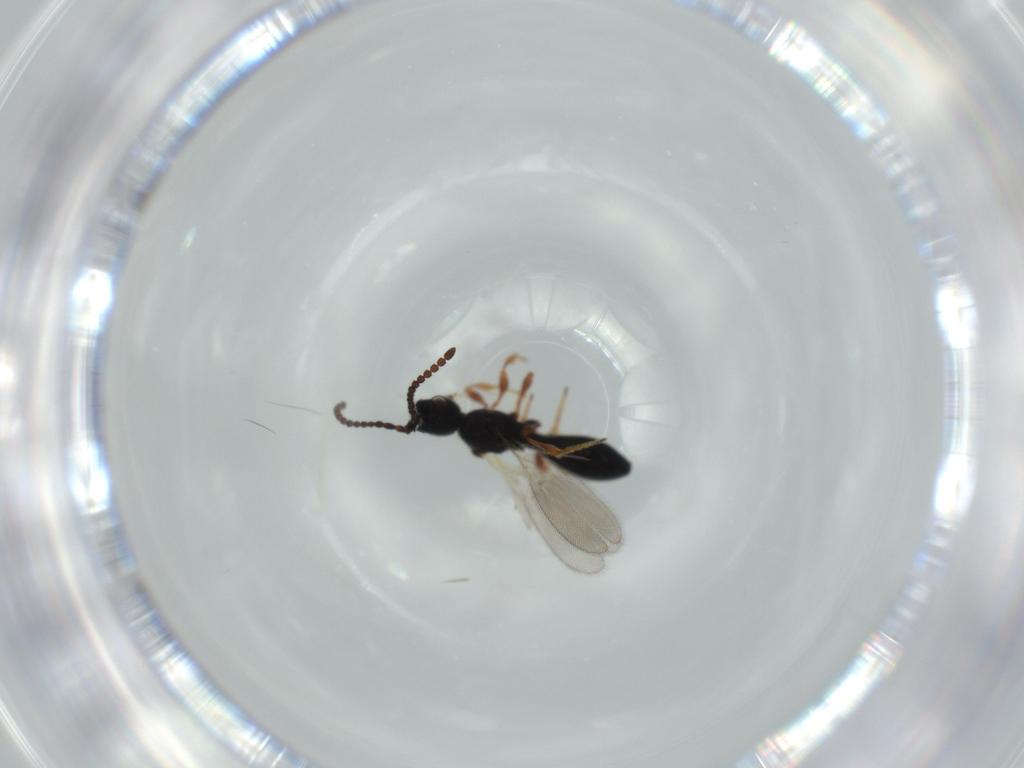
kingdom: Animalia
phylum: Arthropoda
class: Insecta
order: Hymenoptera
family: Diapriidae
